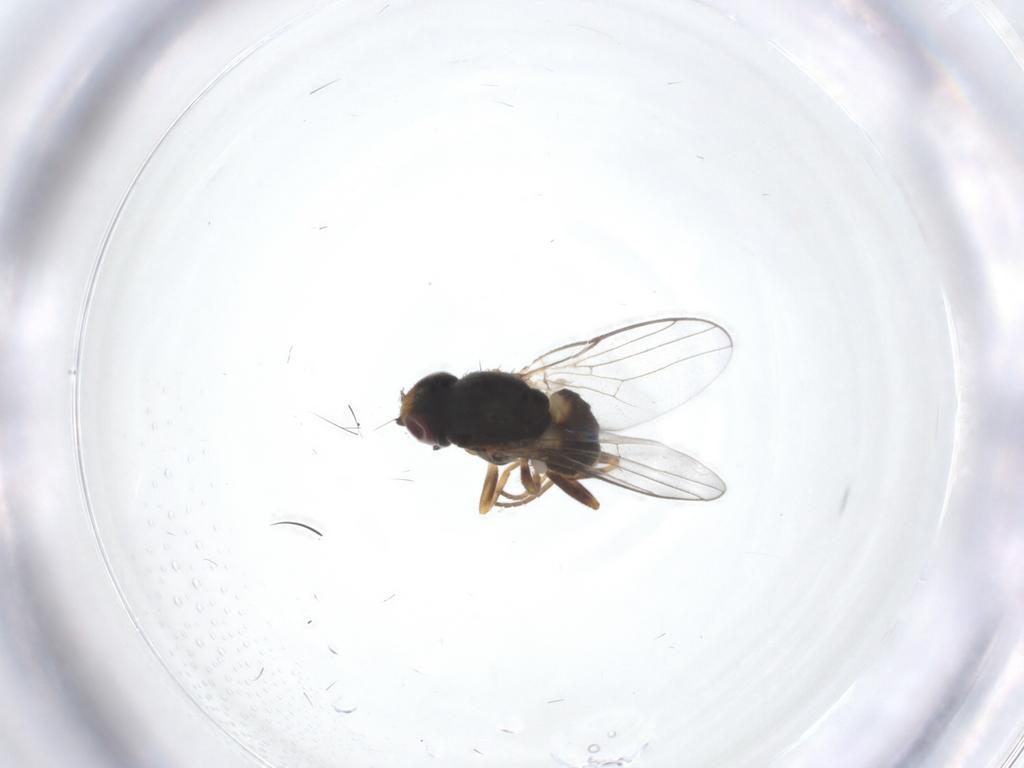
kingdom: Animalia
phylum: Arthropoda
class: Insecta
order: Diptera
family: Chloropidae
